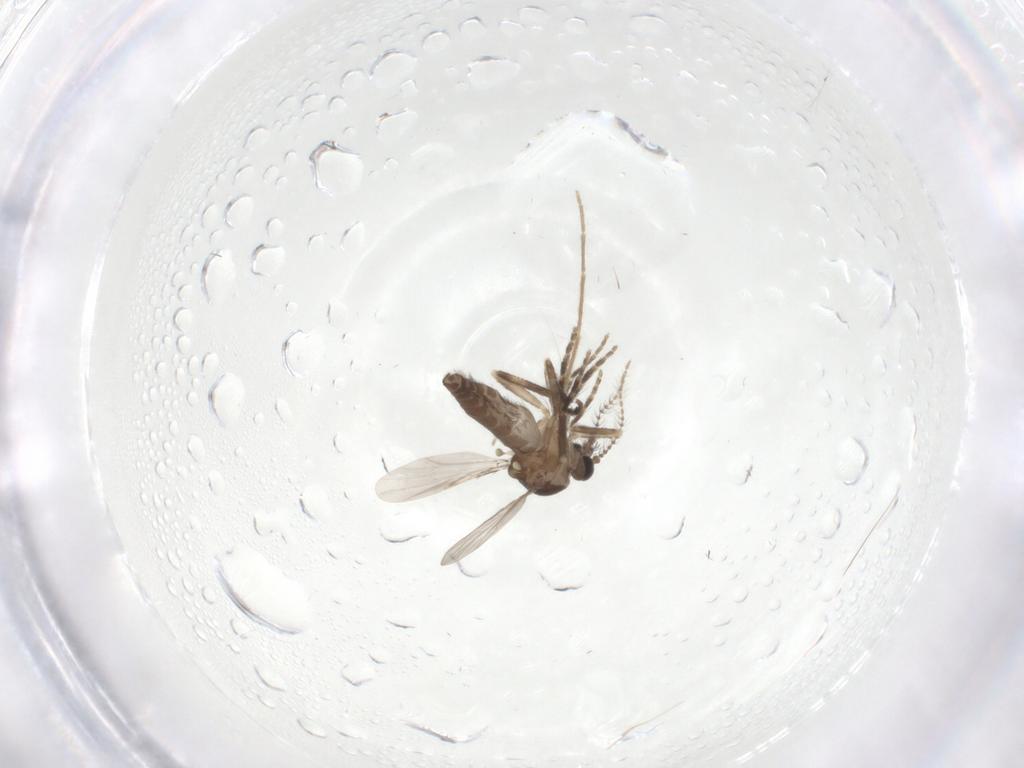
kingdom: Animalia
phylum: Arthropoda
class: Insecta
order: Diptera
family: Ceratopogonidae
